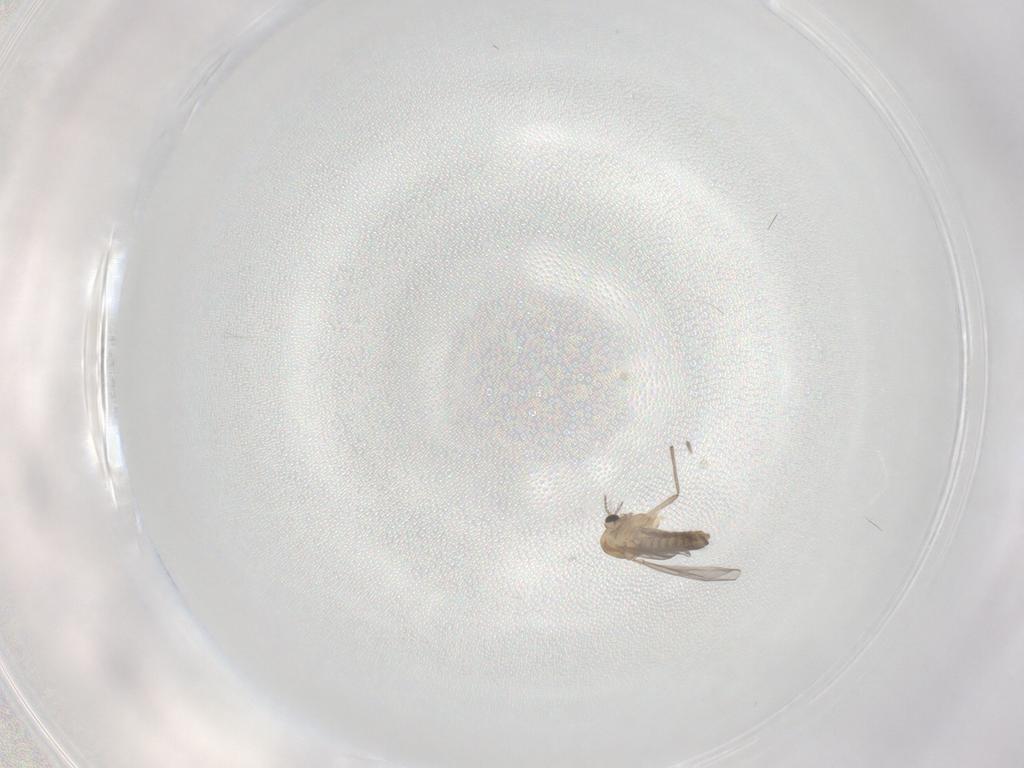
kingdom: Animalia
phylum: Arthropoda
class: Insecta
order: Diptera
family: Chironomidae
